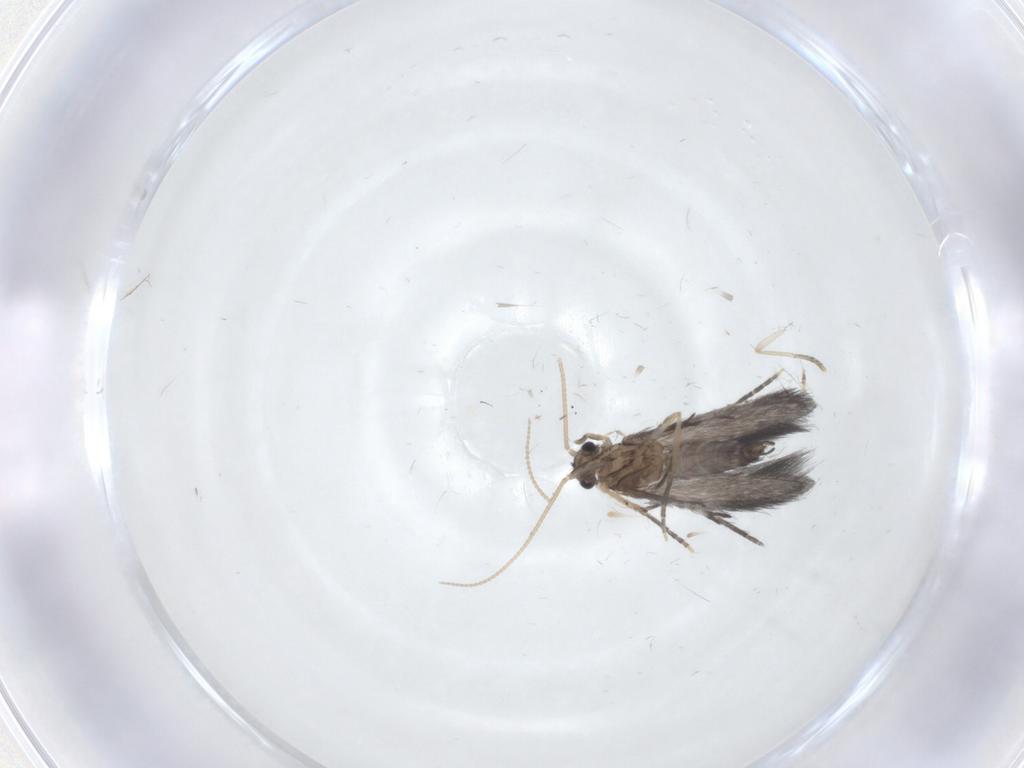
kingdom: Animalia
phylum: Arthropoda
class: Insecta
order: Trichoptera
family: Hydroptilidae
